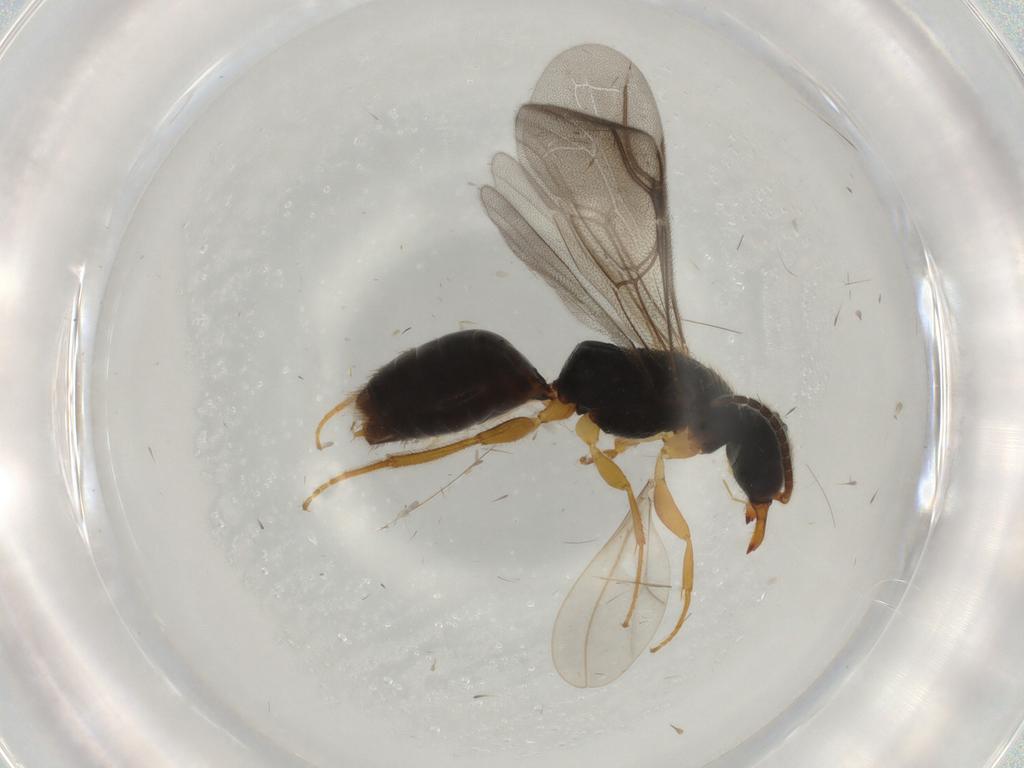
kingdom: Animalia
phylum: Arthropoda
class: Insecta
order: Hymenoptera
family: Bethylidae
